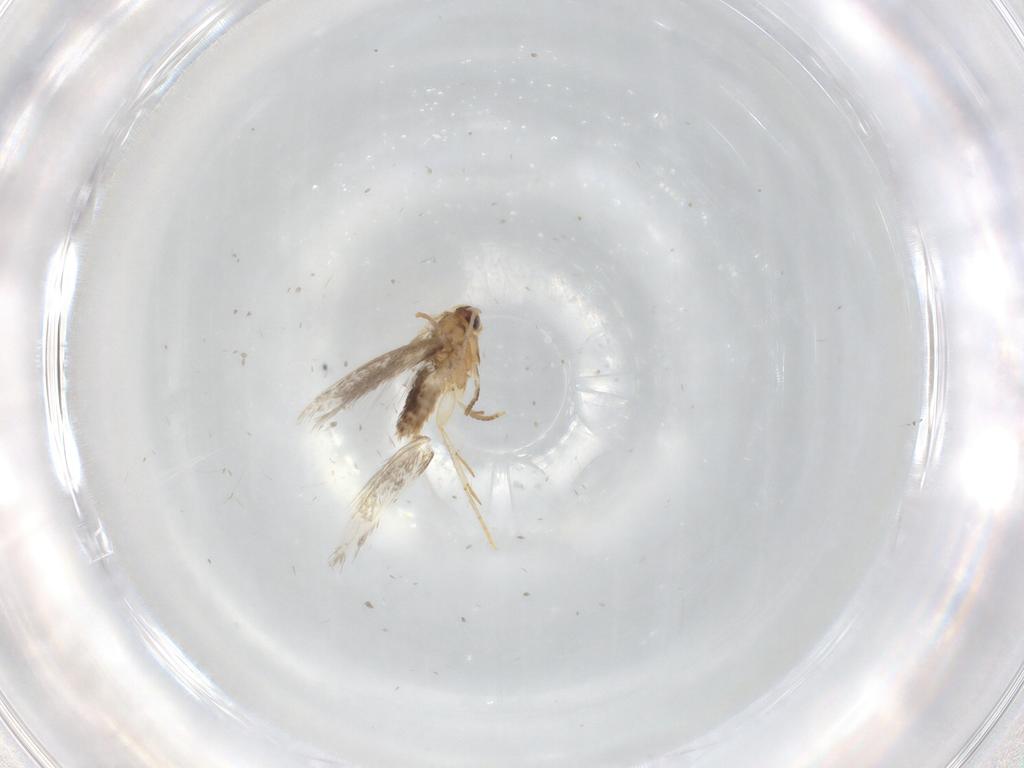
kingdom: Animalia
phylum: Arthropoda
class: Insecta
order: Lepidoptera
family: Nepticulidae
